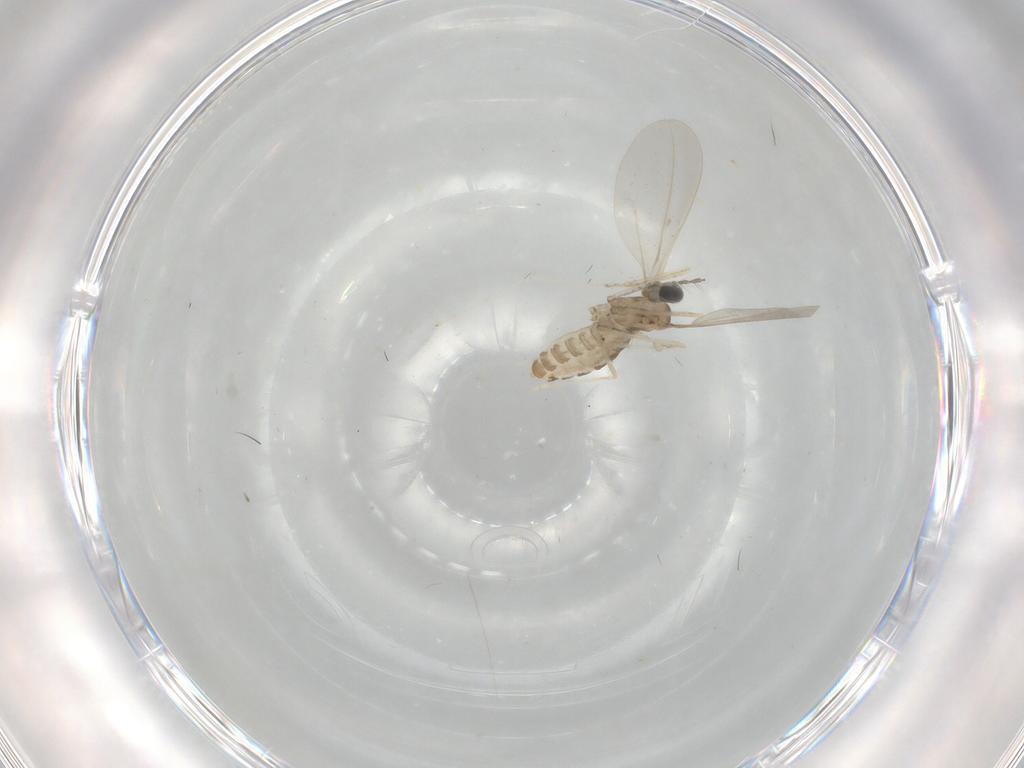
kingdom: Animalia
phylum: Arthropoda
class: Insecta
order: Diptera
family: Cecidomyiidae
